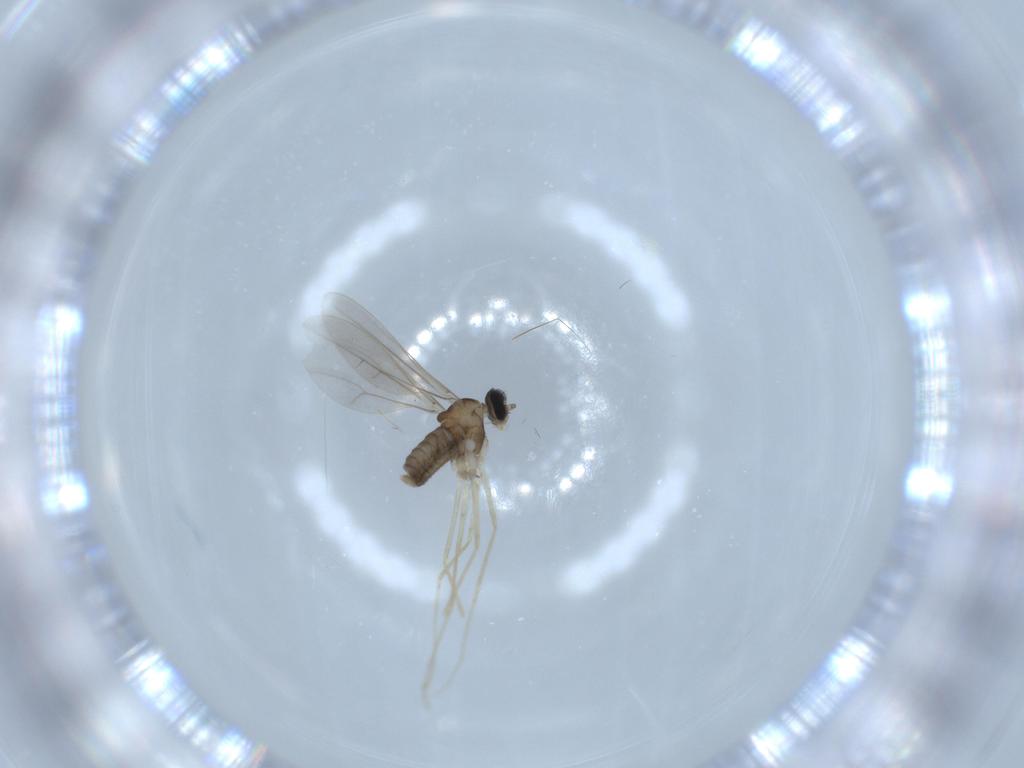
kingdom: Animalia
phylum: Arthropoda
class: Insecta
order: Diptera
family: Cecidomyiidae
